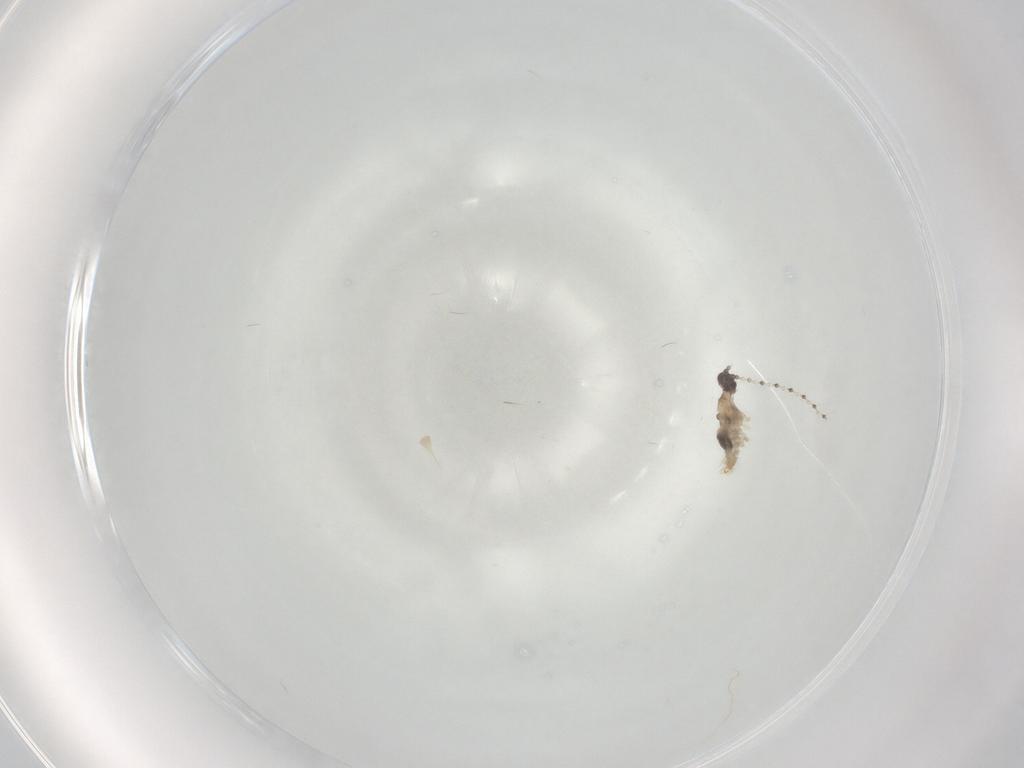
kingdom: Animalia
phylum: Arthropoda
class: Insecta
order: Diptera
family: Cecidomyiidae
